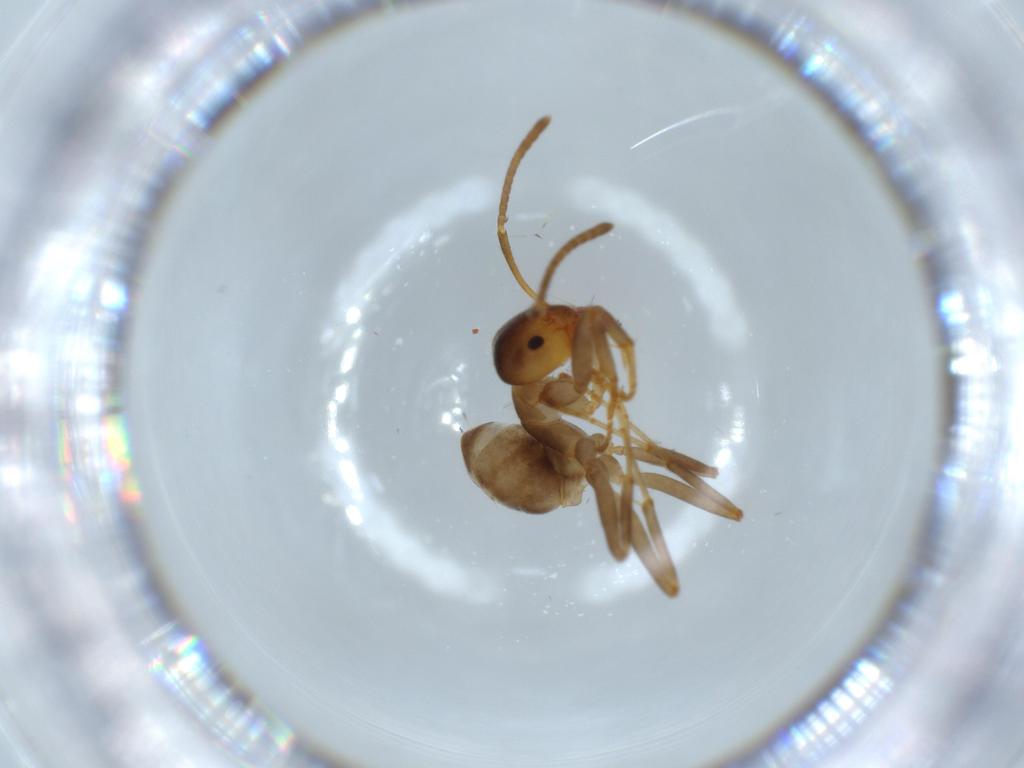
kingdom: Animalia
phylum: Arthropoda
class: Insecta
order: Hymenoptera
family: Formicidae
